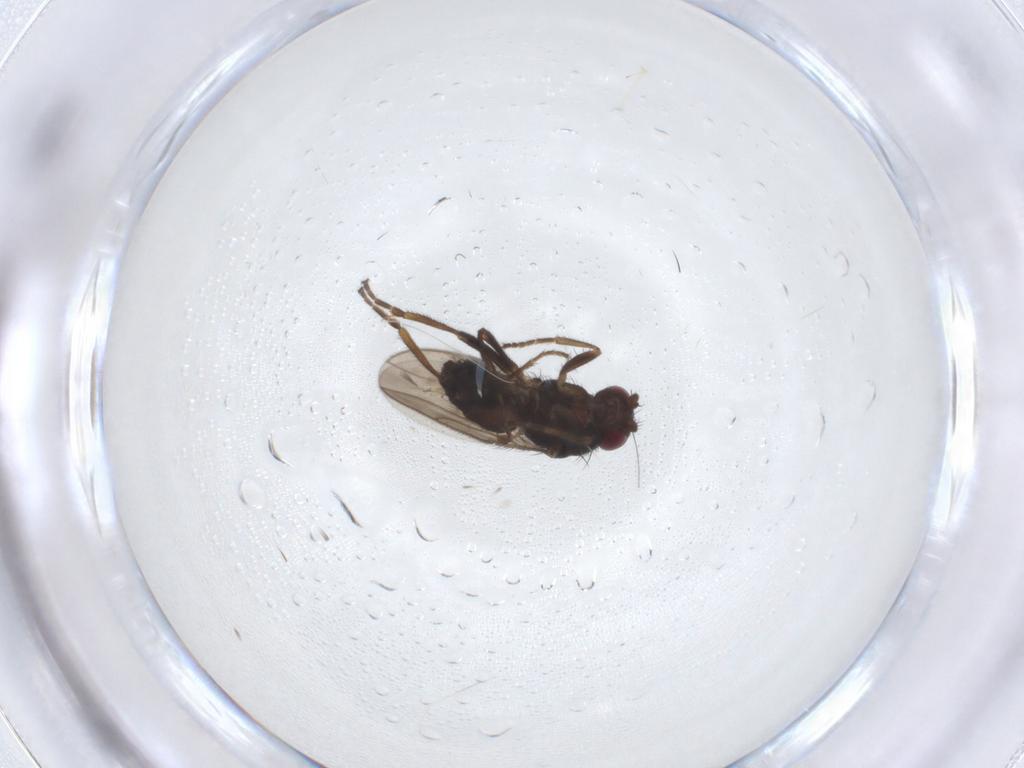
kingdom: Animalia
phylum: Arthropoda
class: Insecta
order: Diptera
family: Sphaeroceridae
